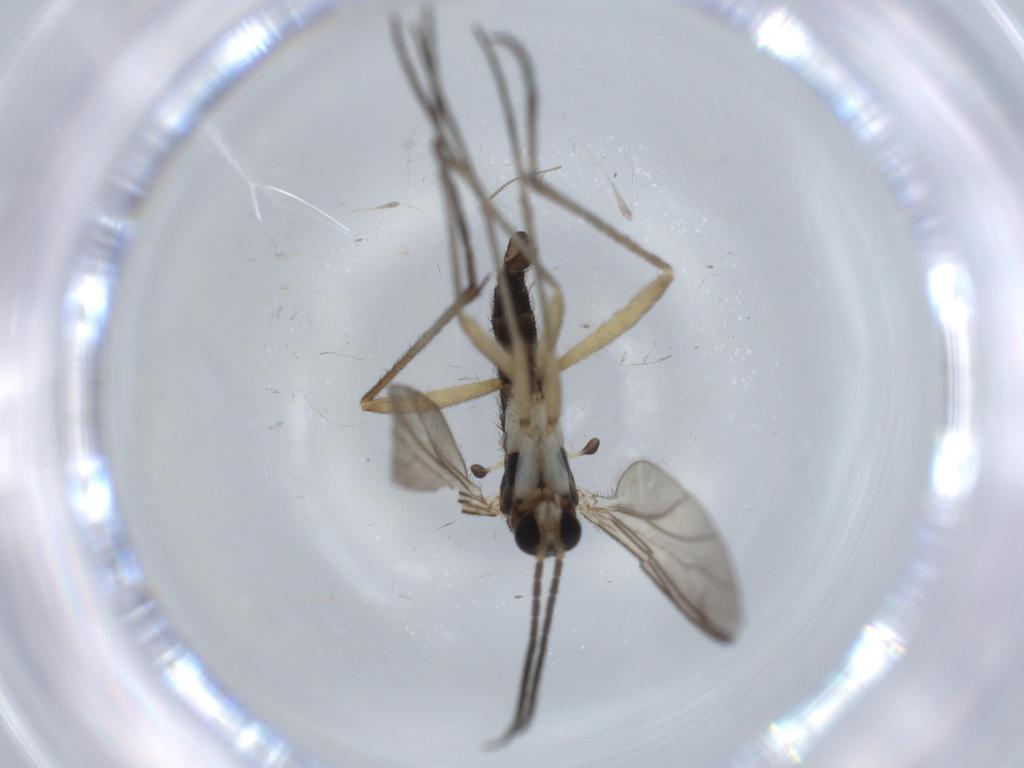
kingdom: Animalia
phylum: Arthropoda
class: Insecta
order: Diptera
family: Sciaridae
